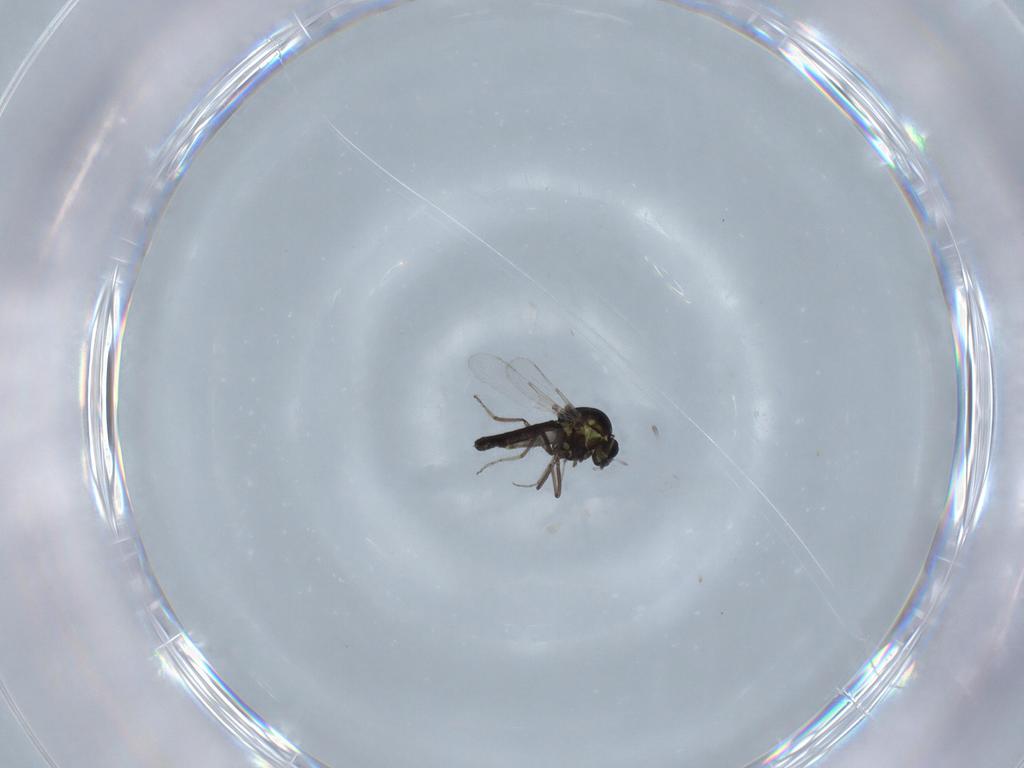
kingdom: Animalia
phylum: Arthropoda
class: Insecta
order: Diptera
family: Ceratopogonidae
